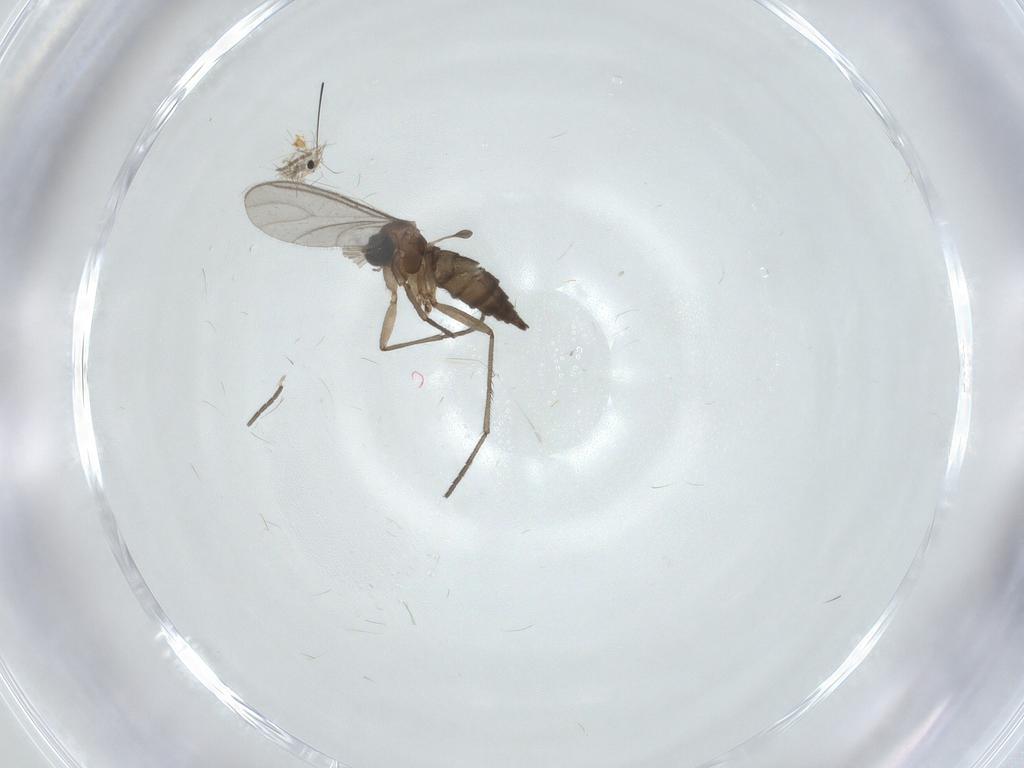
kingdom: Animalia
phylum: Arthropoda
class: Insecta
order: Diptera
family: Chironomidae
